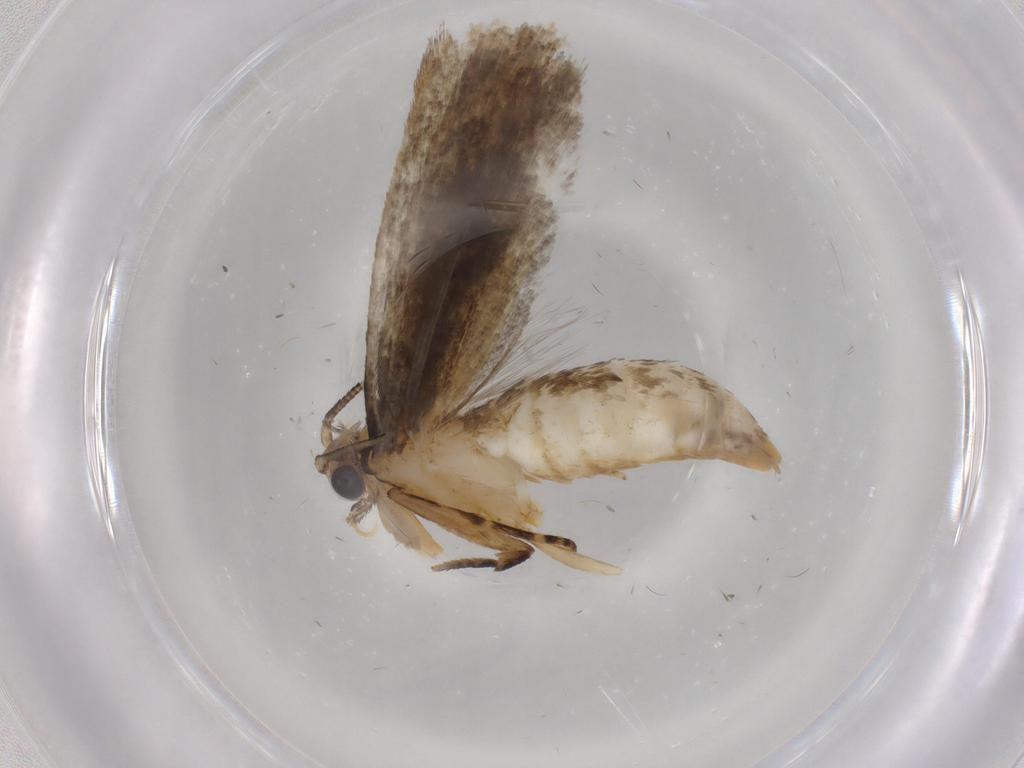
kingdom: Animalia
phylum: Arthropoda
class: Insecta
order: Lepidoptera
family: Tineidae
